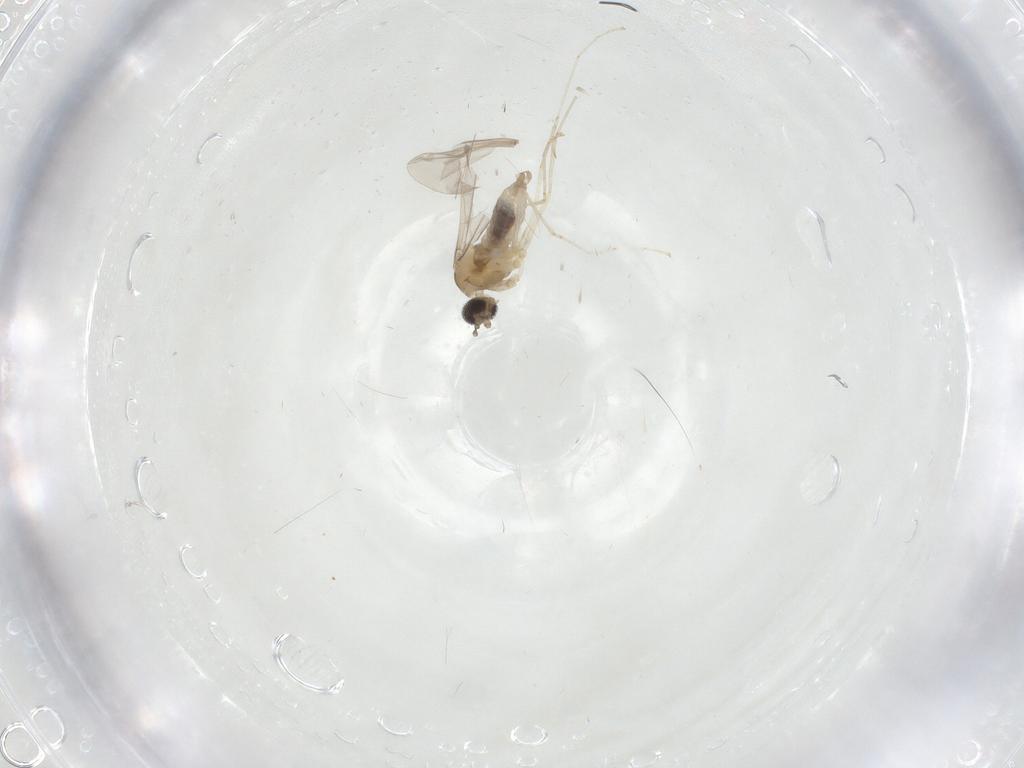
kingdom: Animalia
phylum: Arthropoda
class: Insecta
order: Diptera
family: Cecidomyiidae
